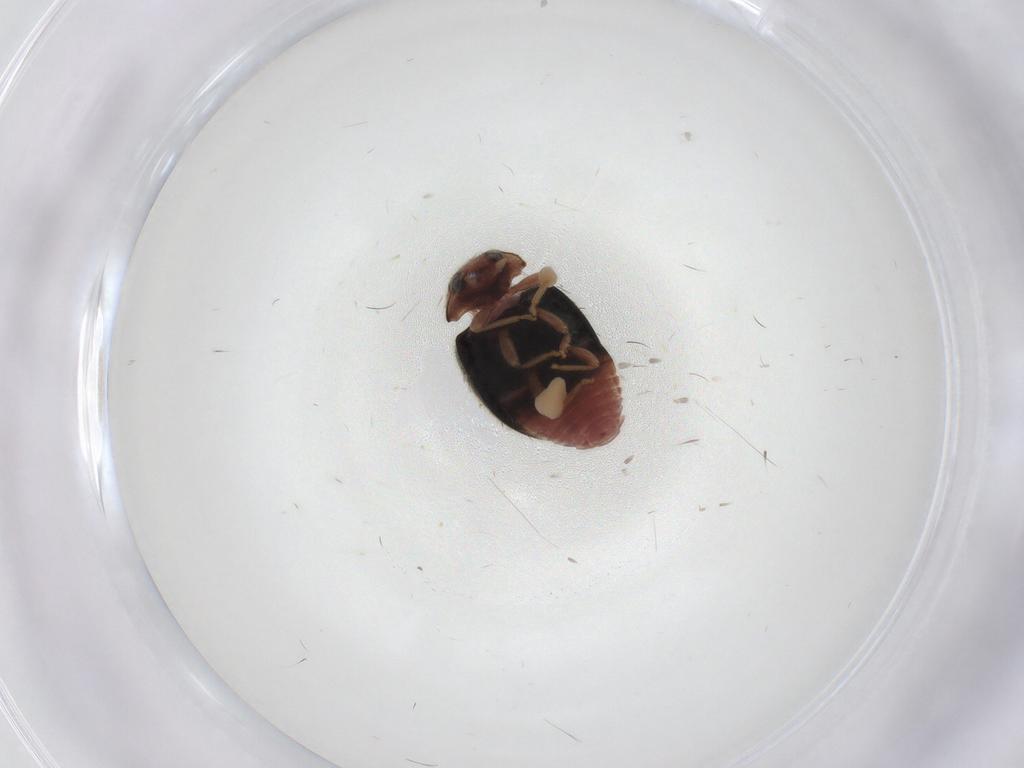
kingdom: Animalia
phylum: Arthropoda
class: Insecta
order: Coleoptera
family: Coccinellidae
